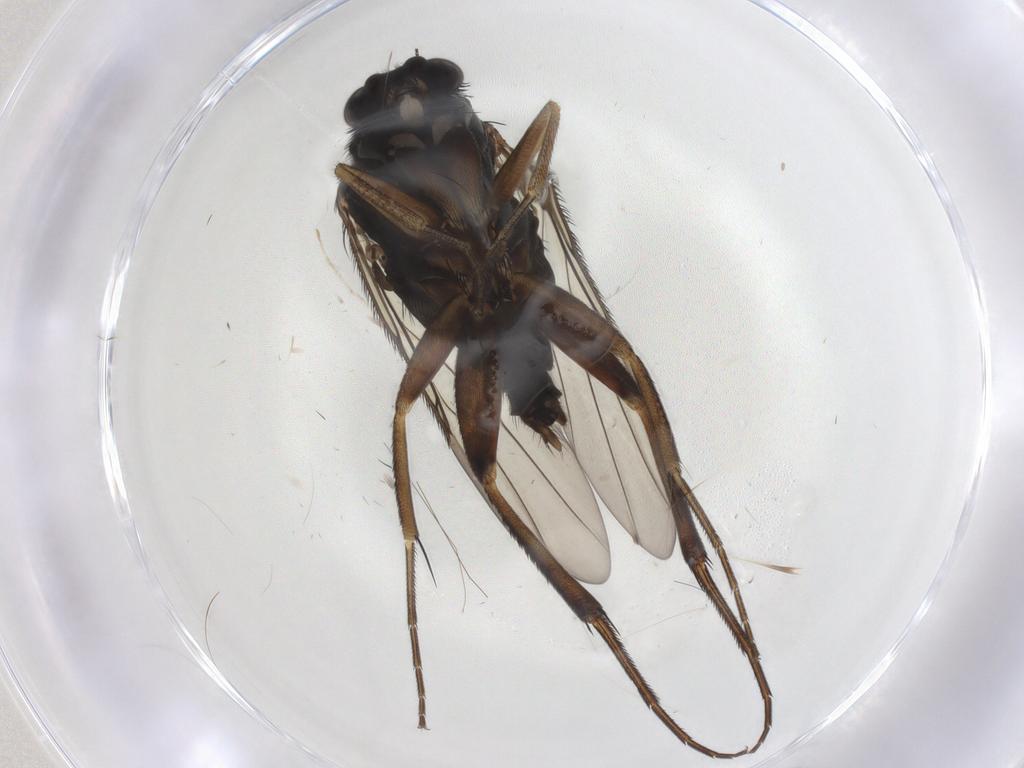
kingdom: Animalia
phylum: Arthropoda
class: Insecta
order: Diptera
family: Phoridae
